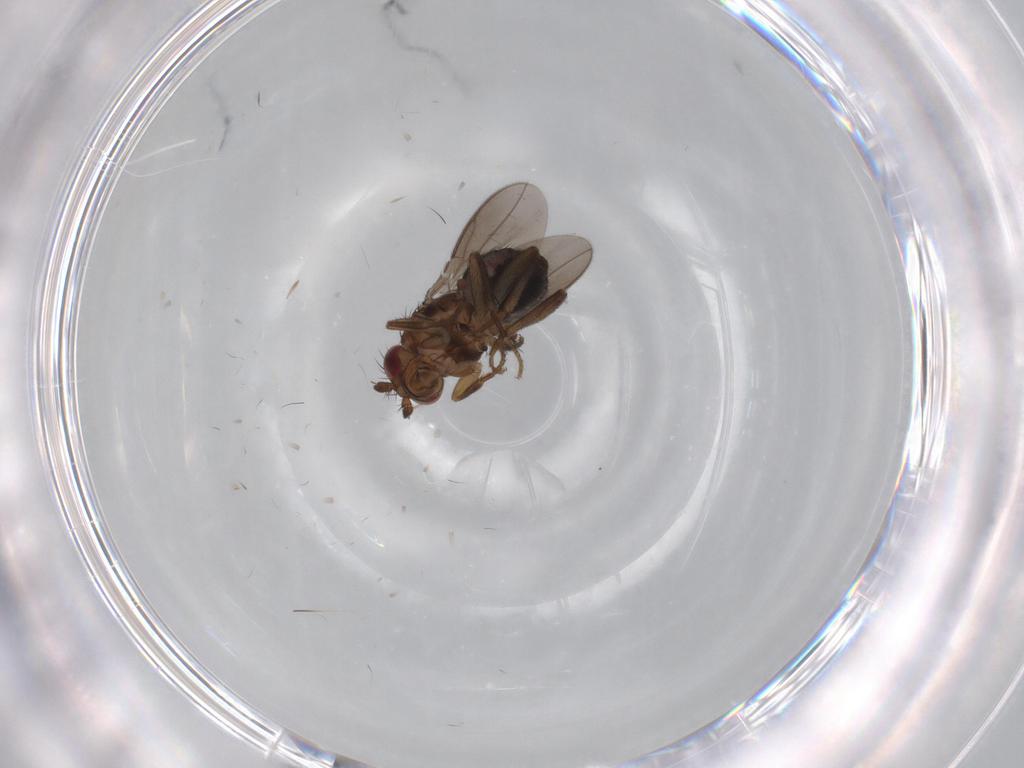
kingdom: Animalia
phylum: Arthropoda
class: Insecta
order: Diptera
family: Sphaeroceridae
